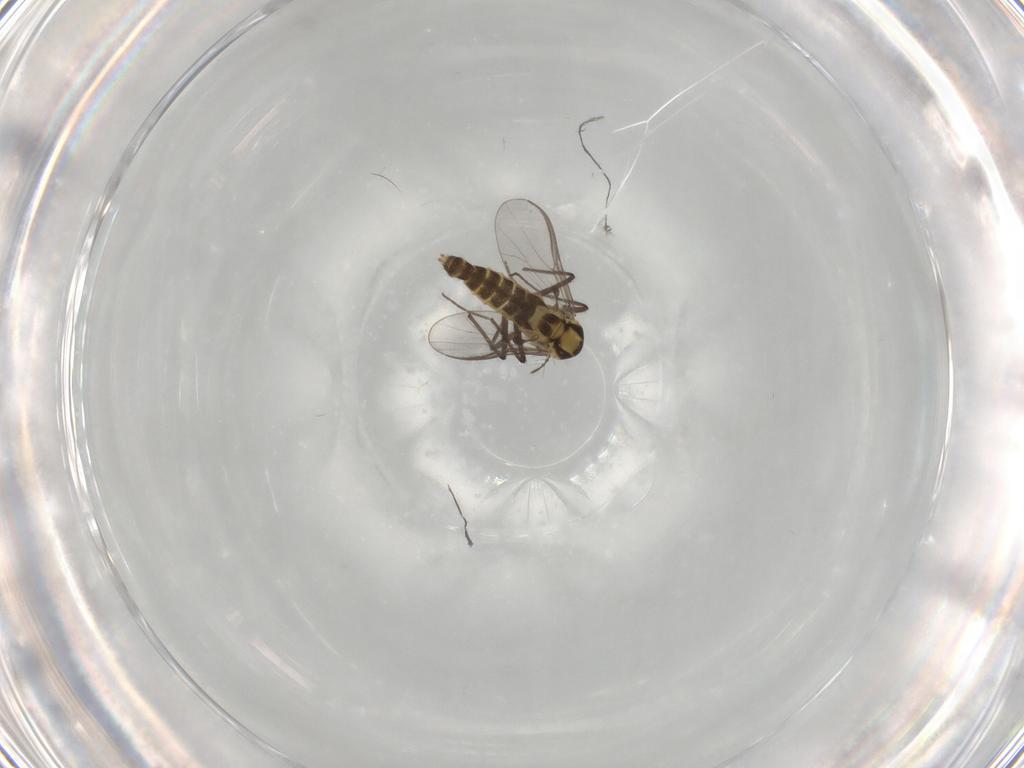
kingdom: Animalia
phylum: Arthropoda
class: Insecta
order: Diptera
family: Chironomidae
